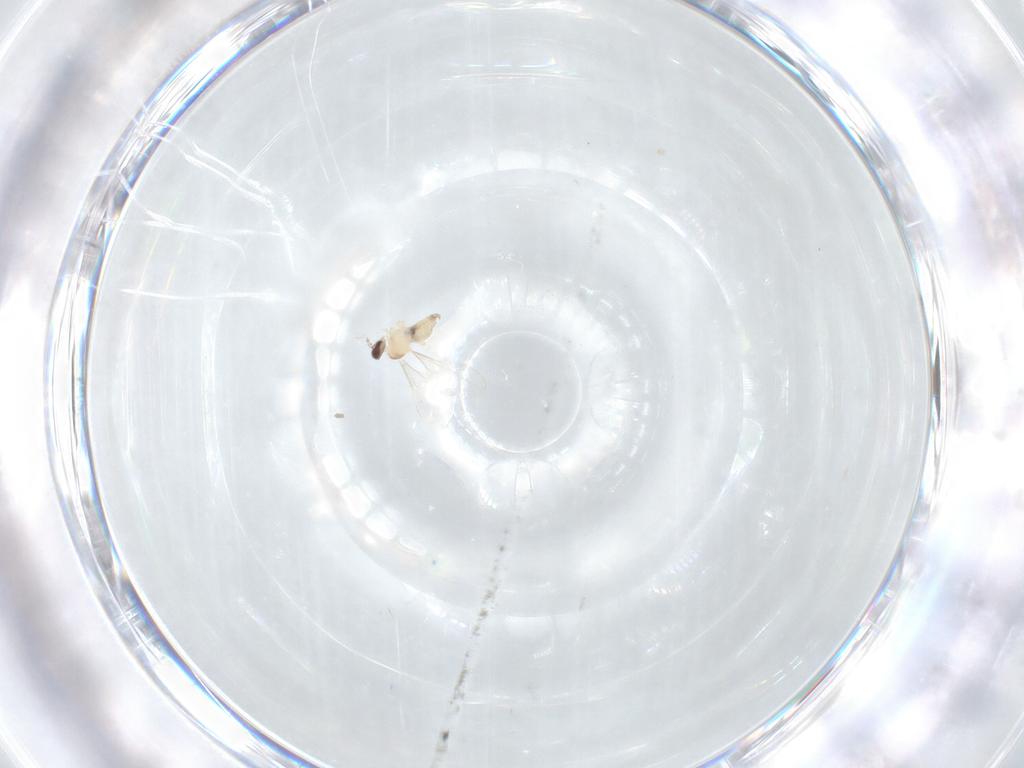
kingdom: Animalia
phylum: Arthropoda
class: Insecta
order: Diptera
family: Cecidomyiidae
